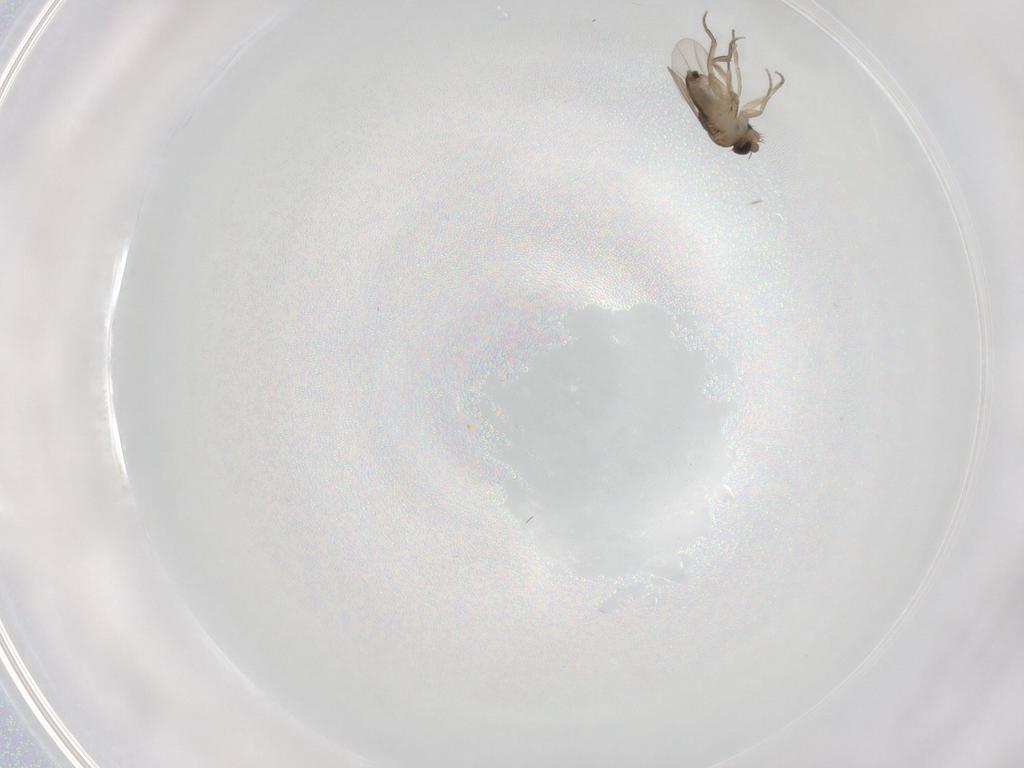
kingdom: Animalia
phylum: Arthropoda
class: Insecta
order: Diptera
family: Phoridae
